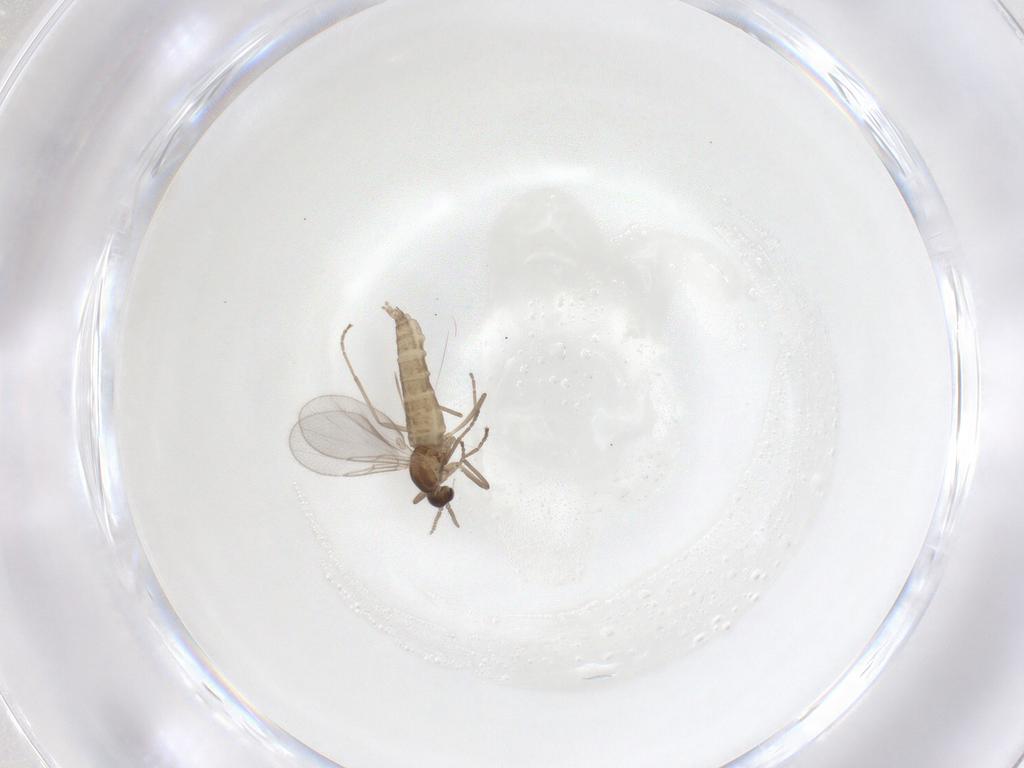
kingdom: Animalia
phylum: Arthropoda
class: Insecta
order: Diptera
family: Cecidomyiidae
